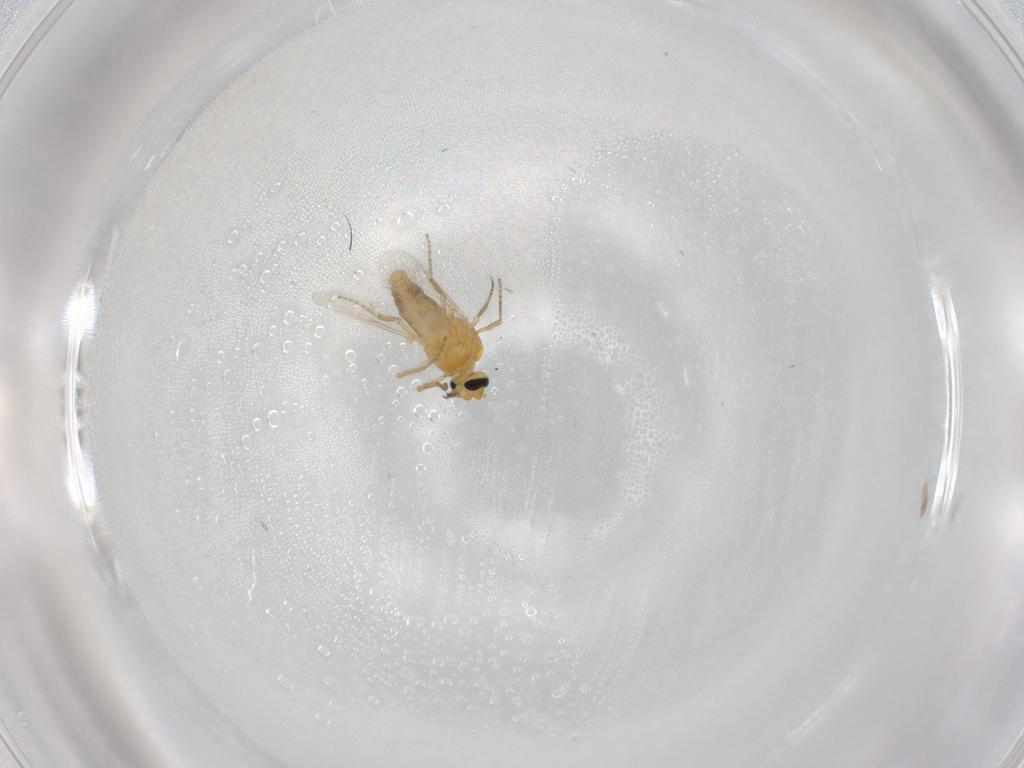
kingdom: Animalia
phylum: Arthropoda
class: Insecta
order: Diptera
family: Ceratopogonidae
